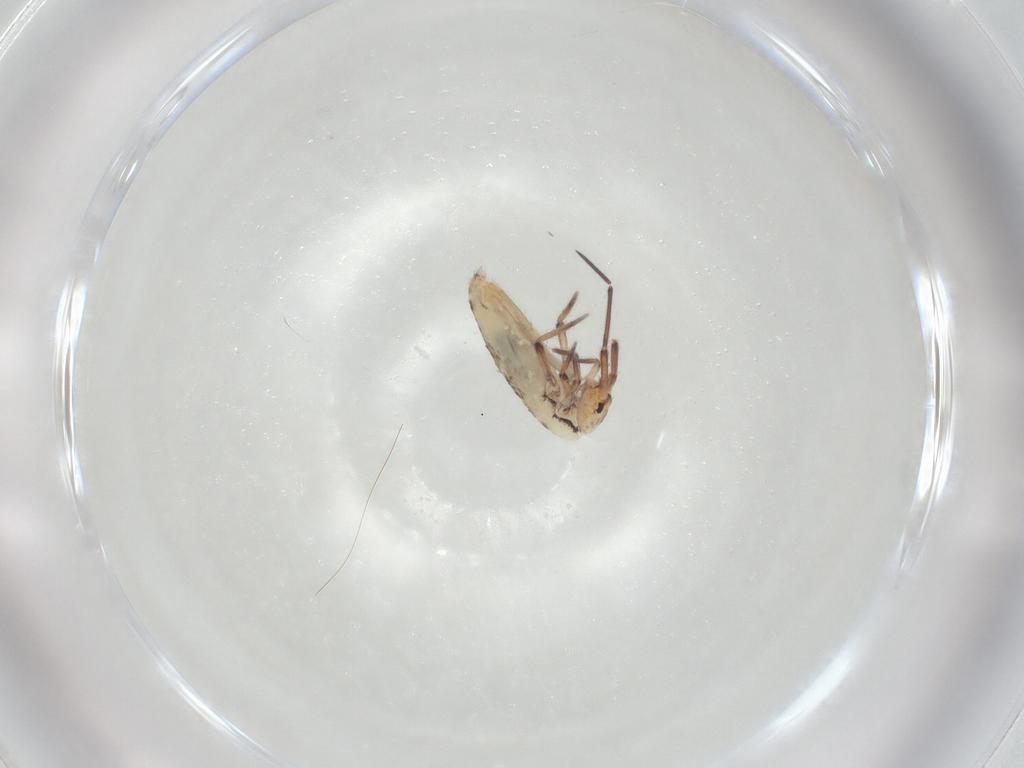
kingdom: Animalia
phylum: Arthropoda
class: Collembola
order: Entomobryomorpha
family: Entomobryidae
